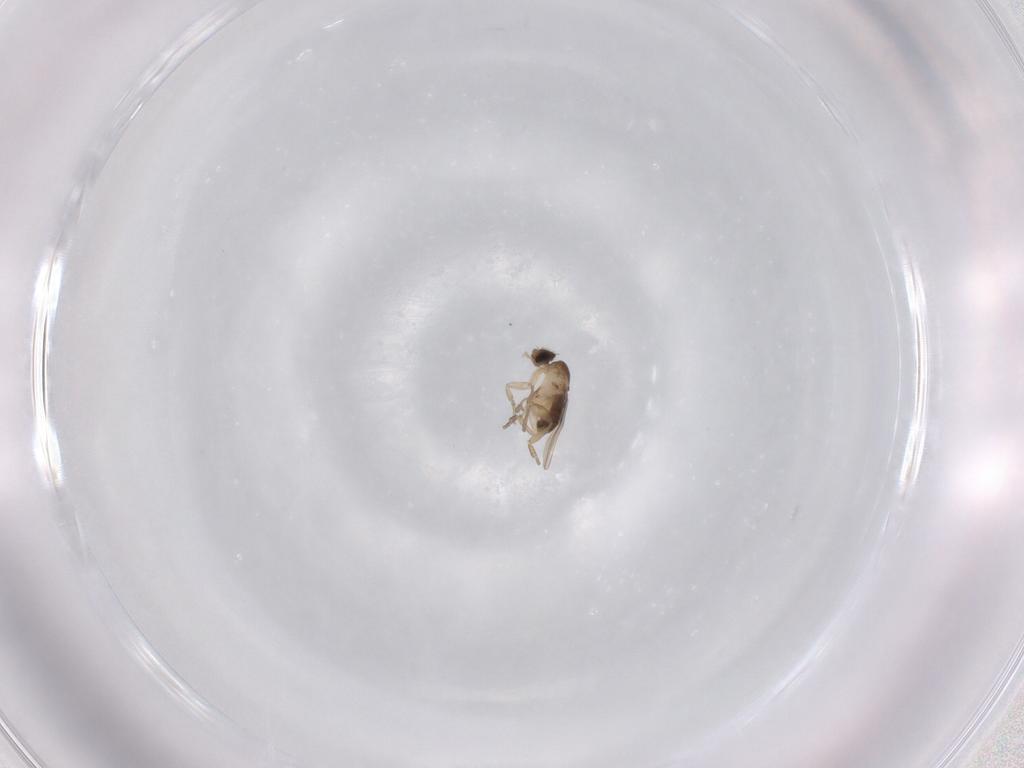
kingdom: Animalia
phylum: Arthropoda
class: Insecta
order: Diptera
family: Phoridae
